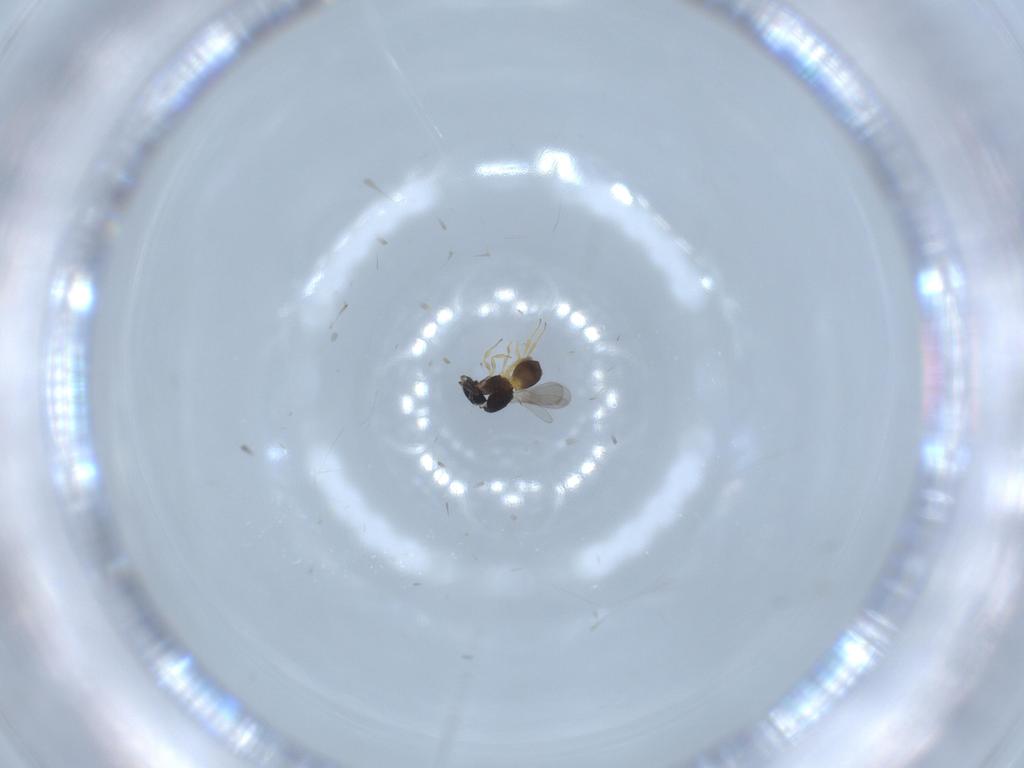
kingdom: Animalia
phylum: Arthropoda
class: Insecta
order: Hymenoptera
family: Scelionidae
